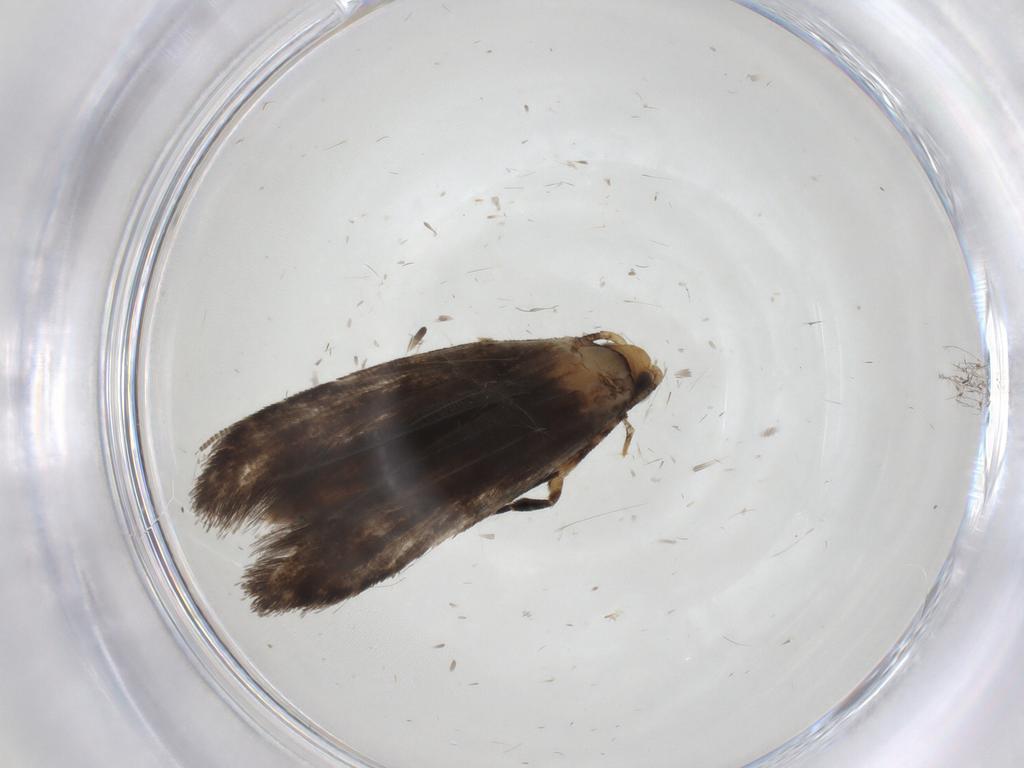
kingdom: Animalia
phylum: Arthropoda
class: Insecta
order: Lepidoptera
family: Tineidae
